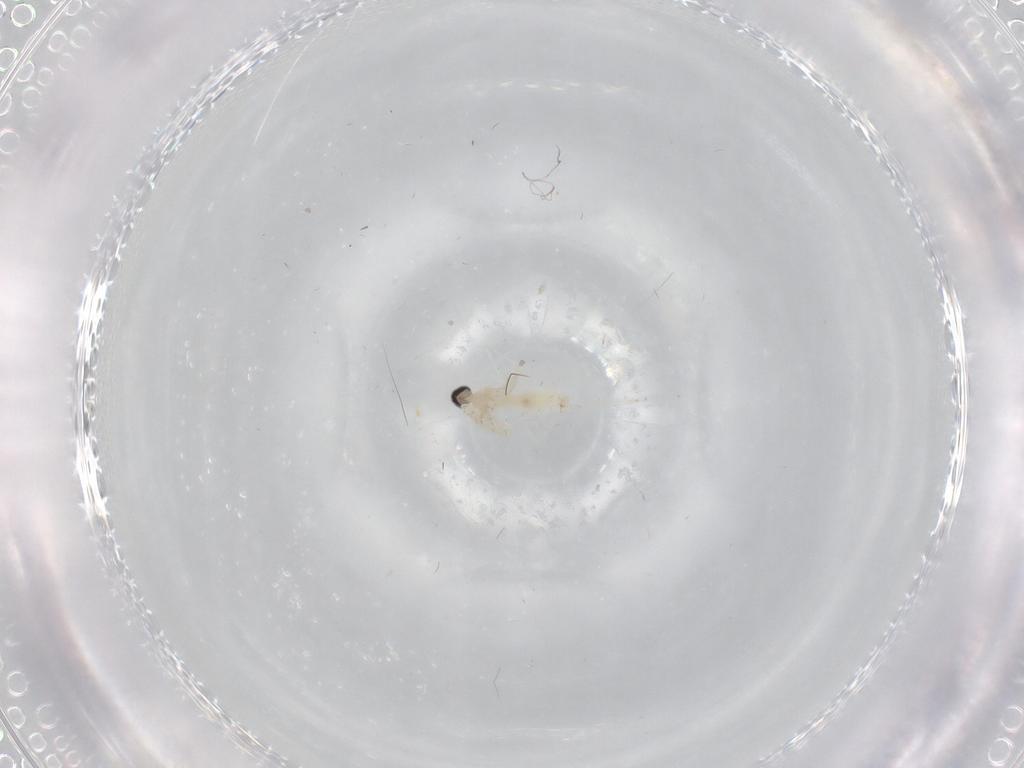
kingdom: Animalia
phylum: Arthropoda
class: Insecta
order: Diptera
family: Cecidomyiidae
